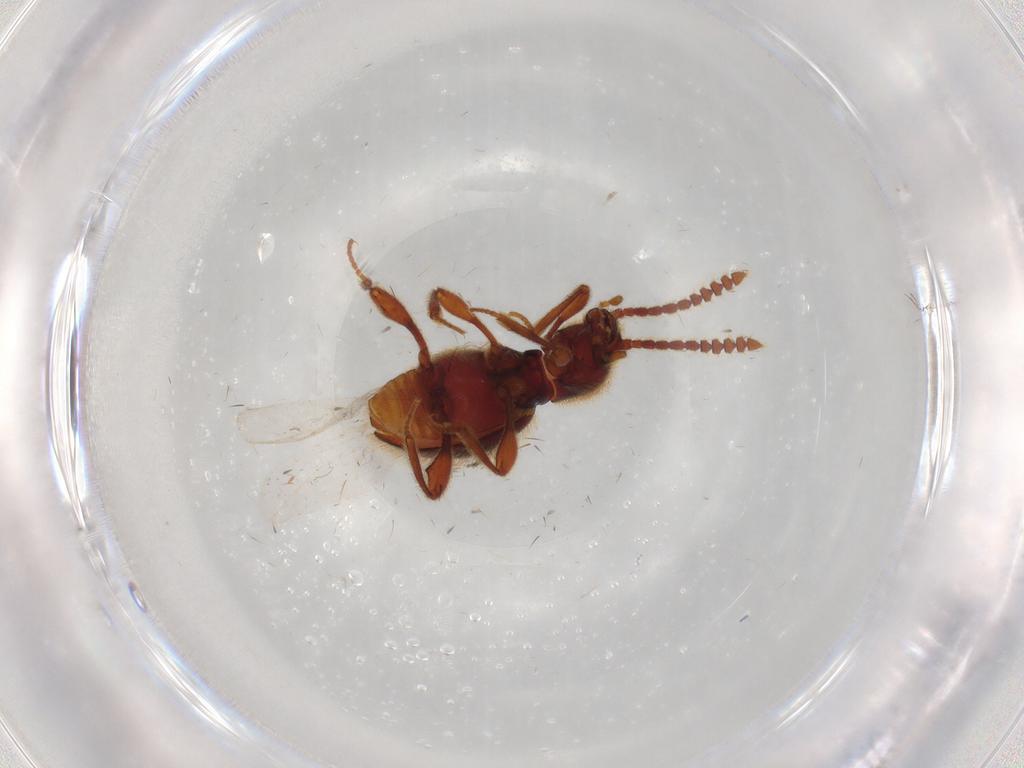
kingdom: Animalia
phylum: Arthropoda
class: Insecta
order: Coleoptera
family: Staphylinidae
